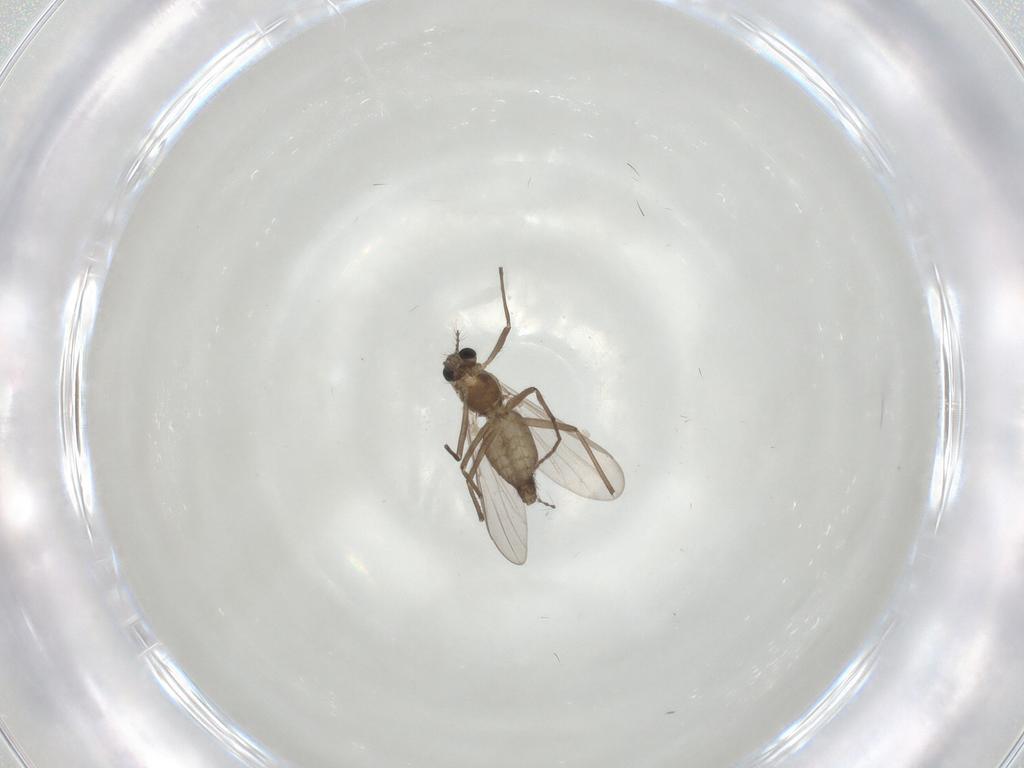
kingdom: Animalia
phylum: Arthropoda
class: Insecta
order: Diptera
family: Chironomidae
